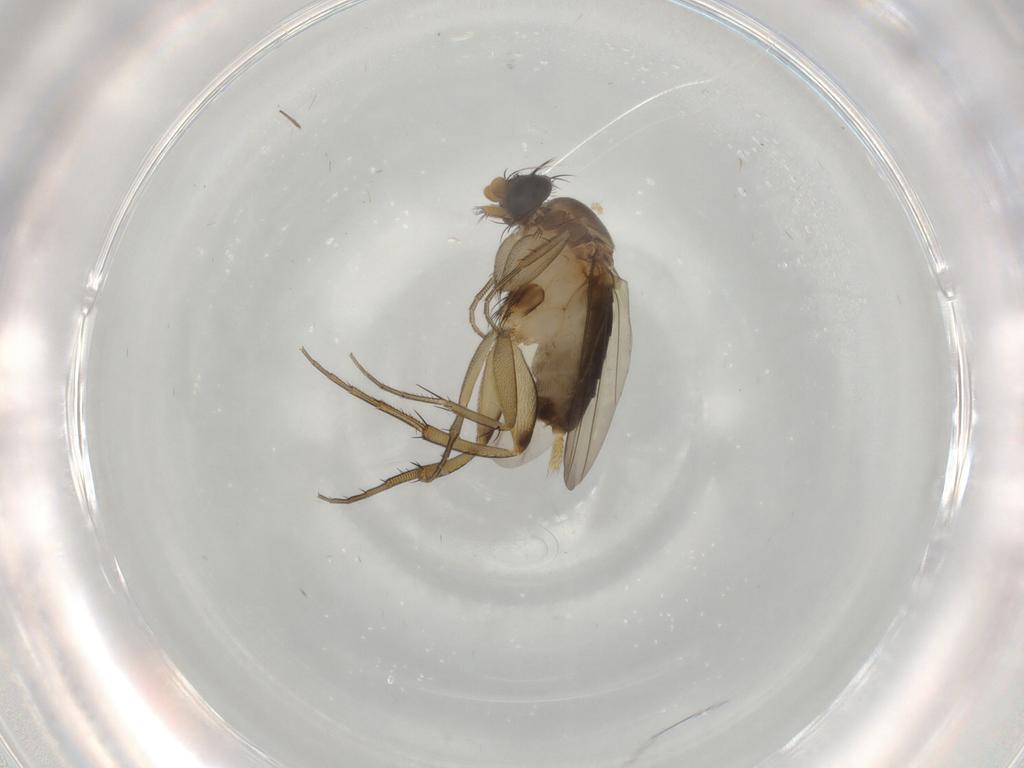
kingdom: Animalia
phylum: Arthropoda
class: Insecta
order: Diptera
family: Chironomidae
